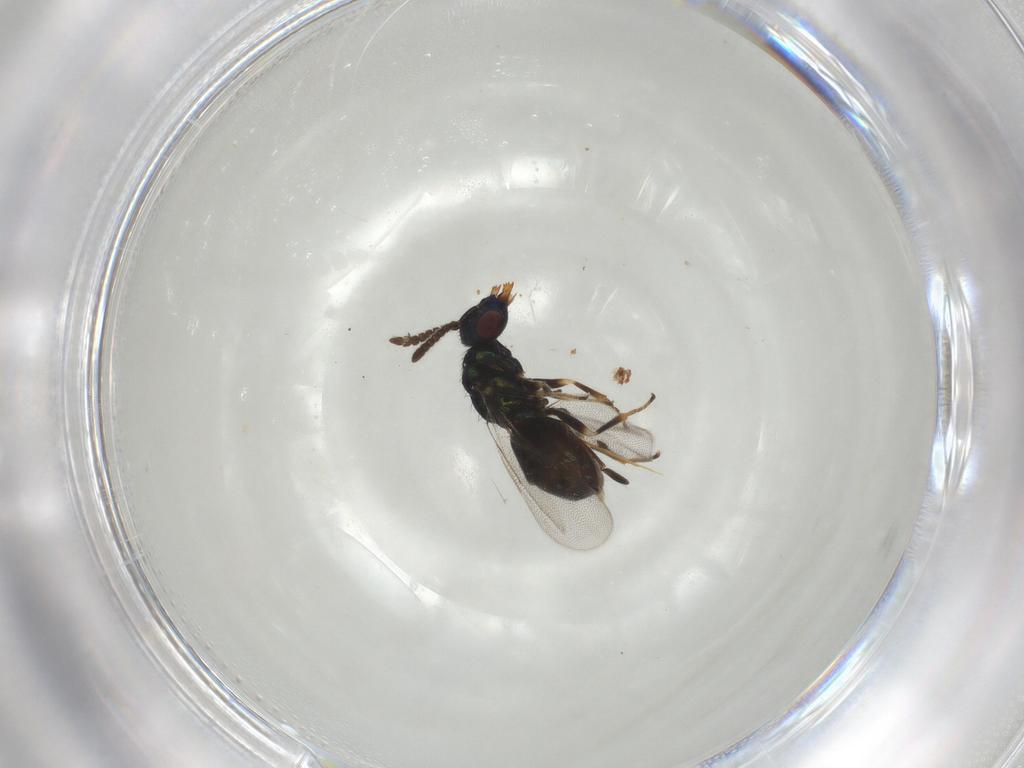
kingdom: Animalia
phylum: Arthropoda
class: Insecta
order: Hymenoptera
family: Pirenidae
